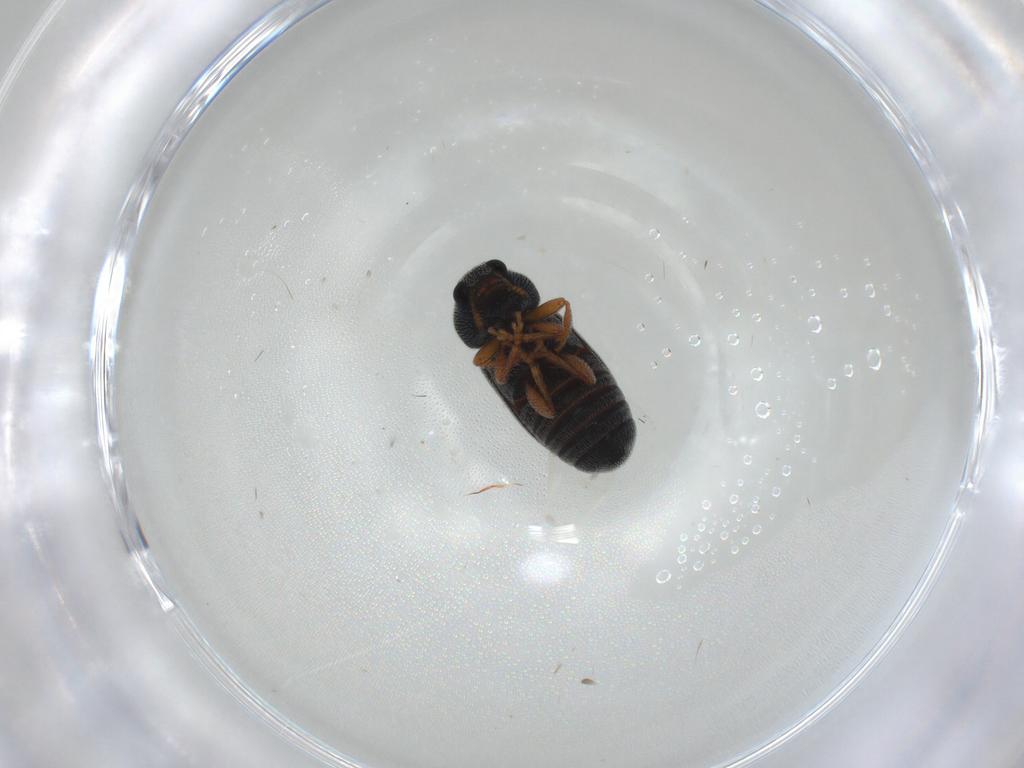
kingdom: Animalia
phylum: Arthropoda
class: Insecta
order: Coleoptera
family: Anthribidae
